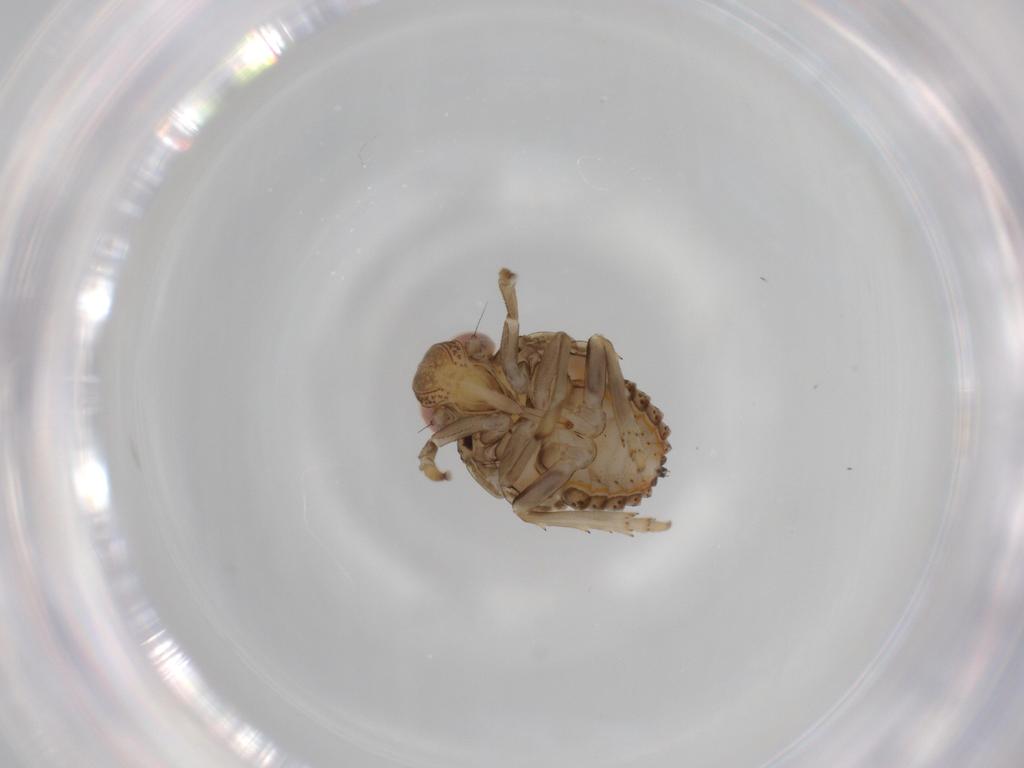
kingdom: Animalia
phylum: Arthropoda
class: Insecta
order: Hemiptera
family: Issidae
